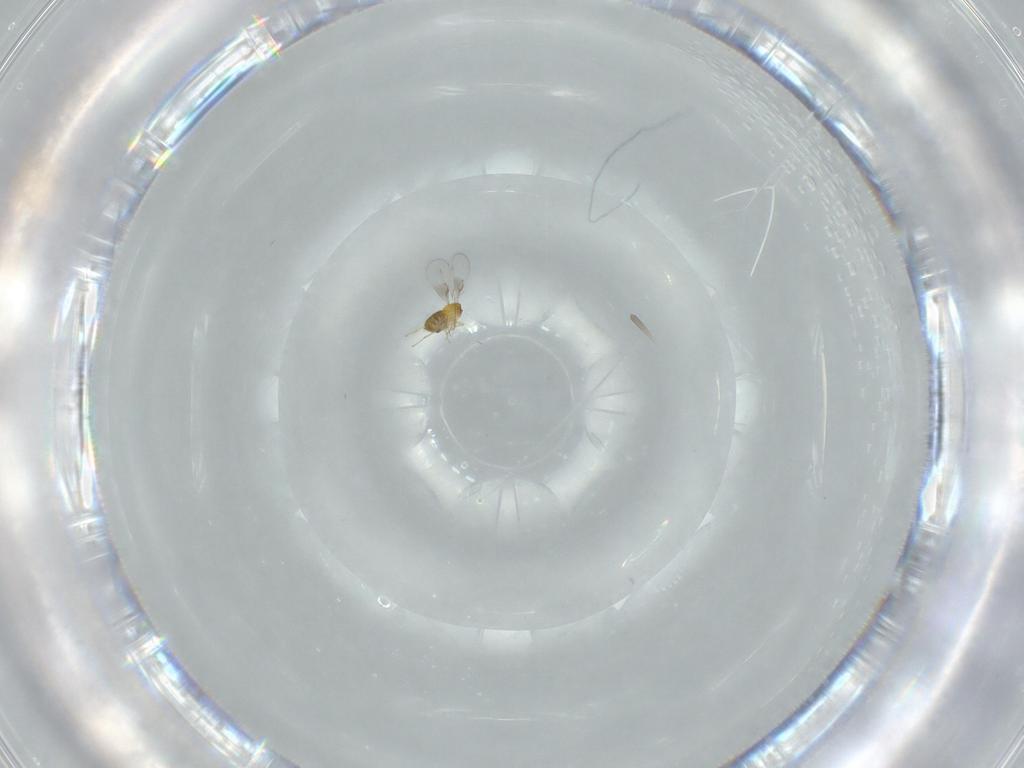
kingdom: Animalia
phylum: Arthropoda
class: Insecta
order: Hymenoptera
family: Trichogrammatidae
